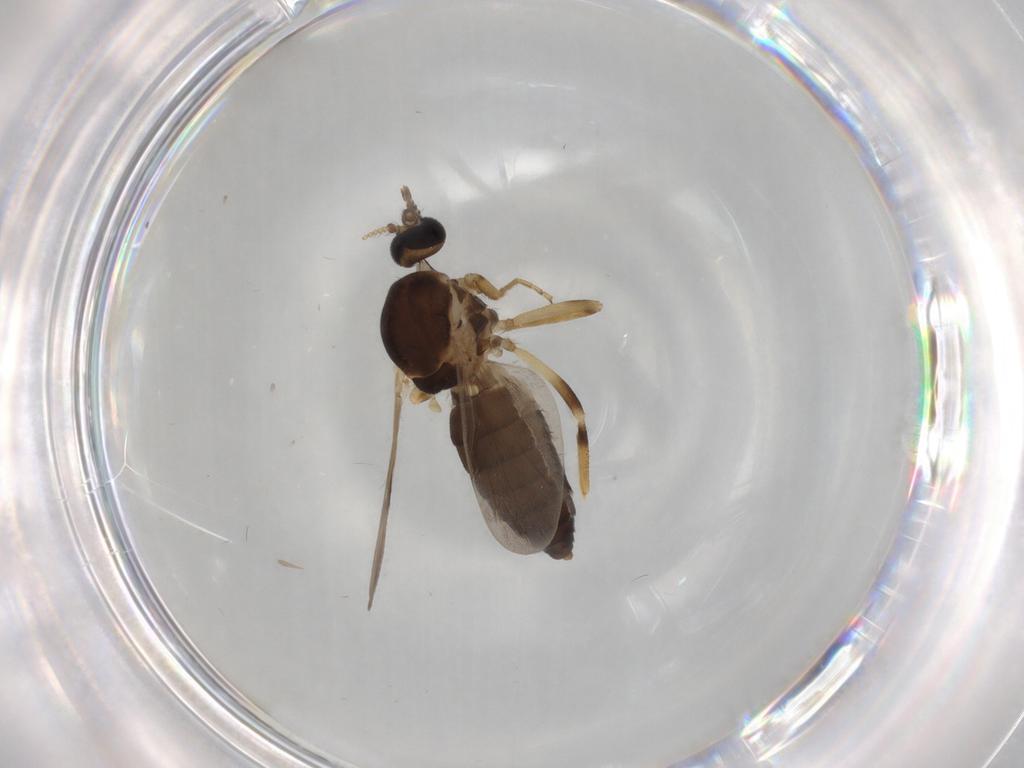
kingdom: Animalia
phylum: Arthropoda
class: Insecta
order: Diptera
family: Ceratopogonidae
